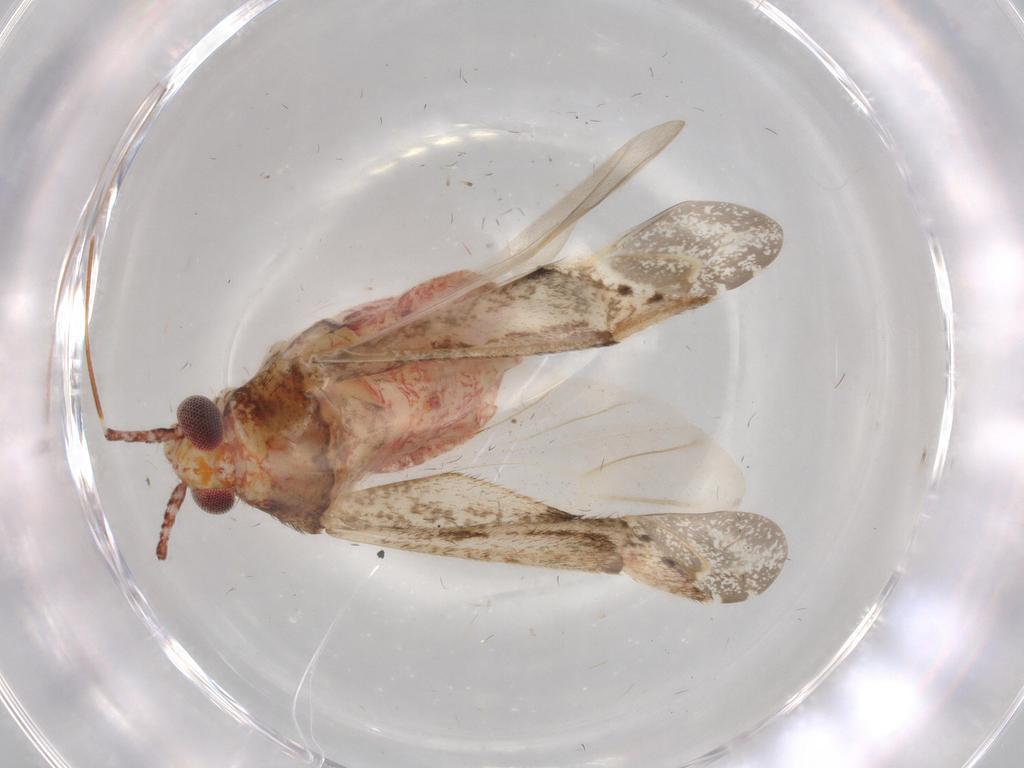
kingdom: Animalia
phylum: Arthropoda
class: Insecta
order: Hemiptera
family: Miridae
